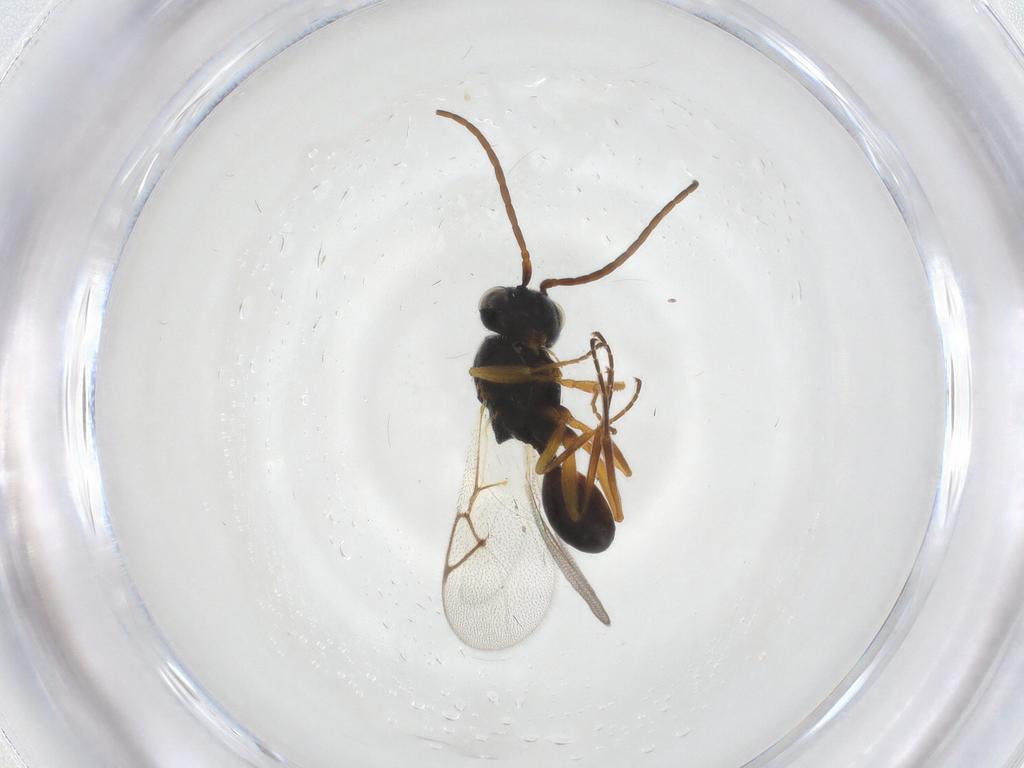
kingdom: Animalia
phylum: Arthropoda
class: Insecta
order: Hymenoptera
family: Figitidae
